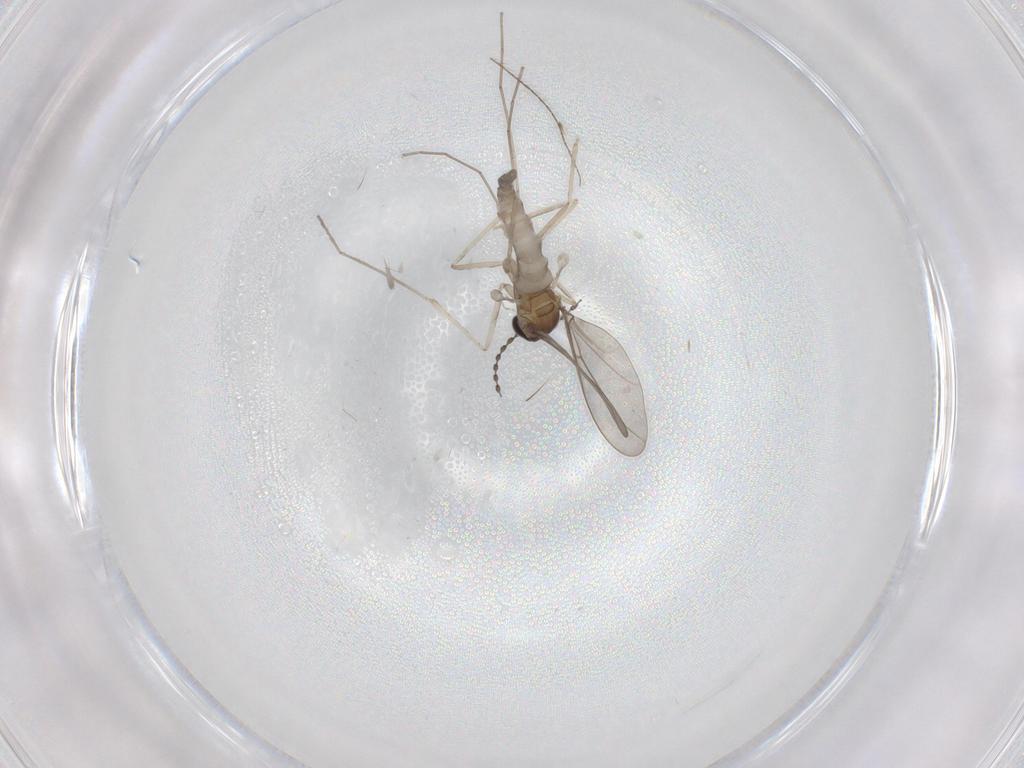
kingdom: Animalia
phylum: Arthropoda
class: Insecta
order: Diptera
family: Cecidomyiidae
